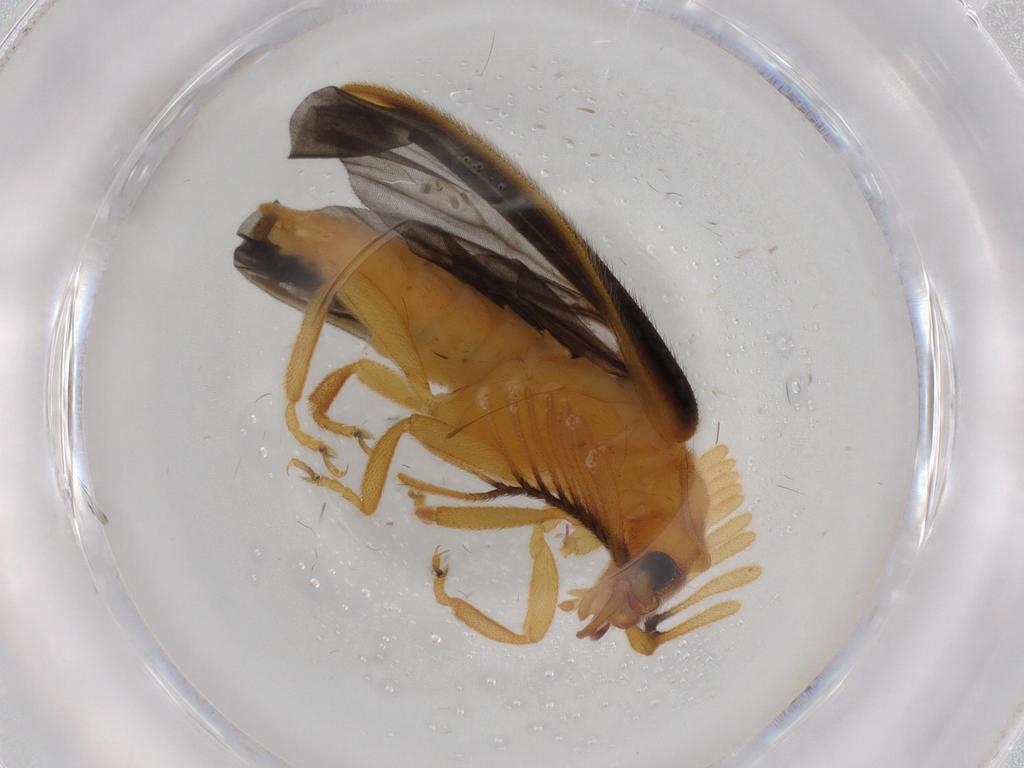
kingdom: Animalia
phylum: Arthropoda
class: Insecta
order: Coleoptera
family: Lampyridae
